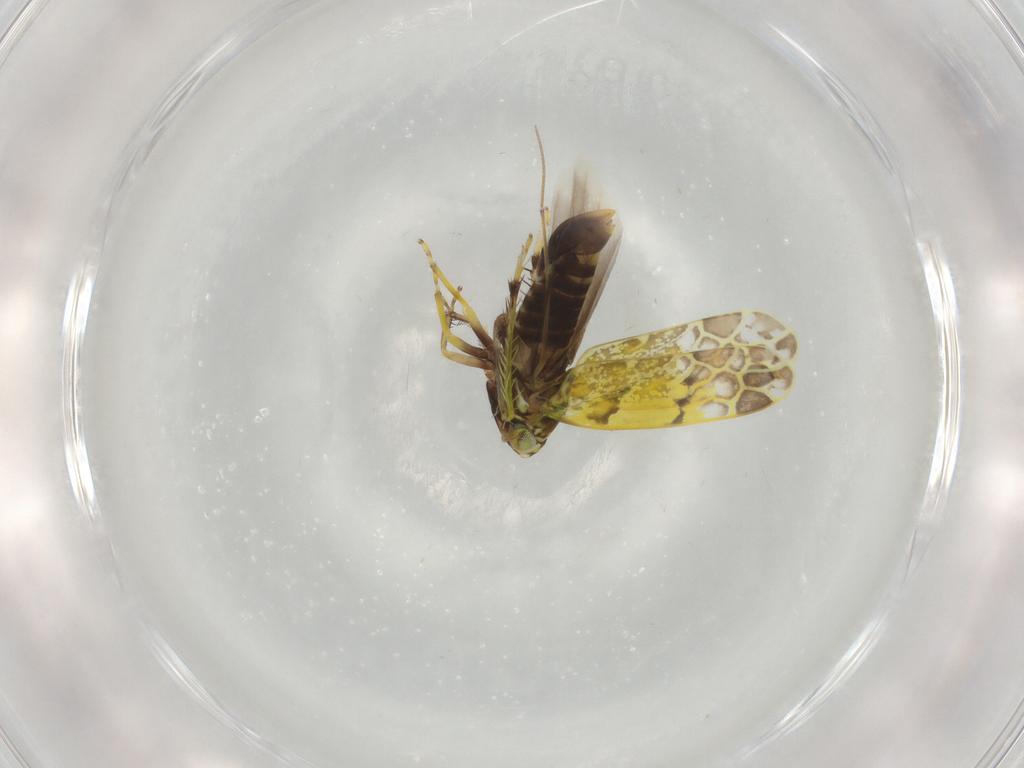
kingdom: Animalia
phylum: Arthropoda
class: Insecta
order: Hemiptera
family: Cicadellidae
